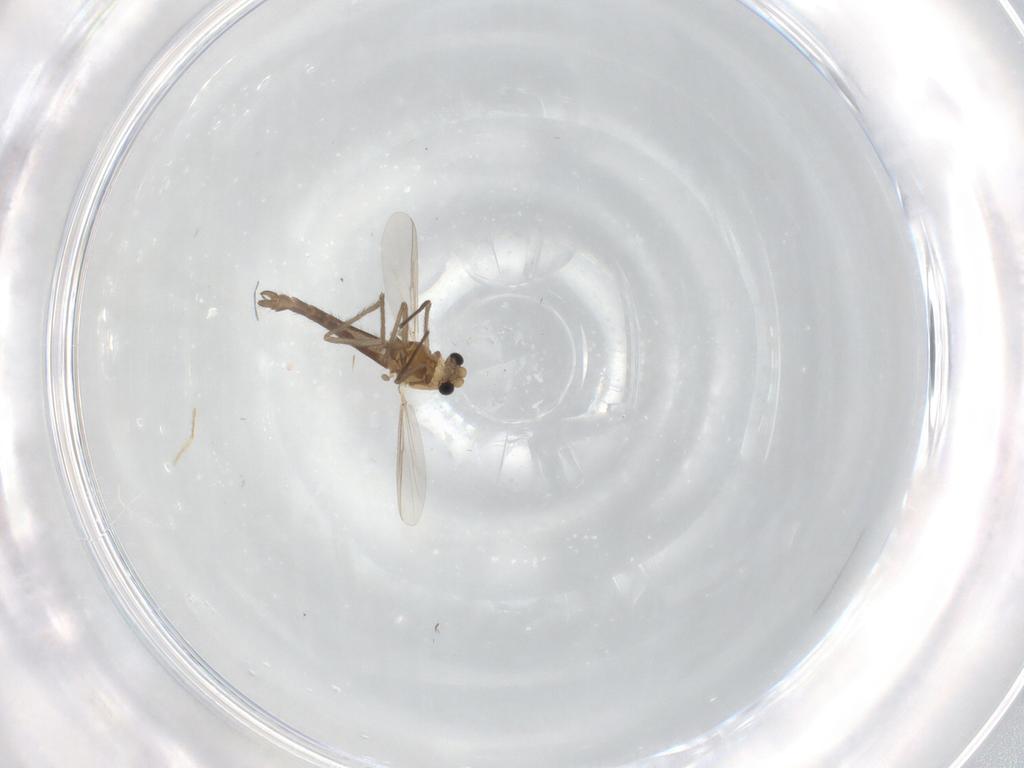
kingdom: Animalia
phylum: Arthropoda
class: Insecta
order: Diptera
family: Chironomidae
